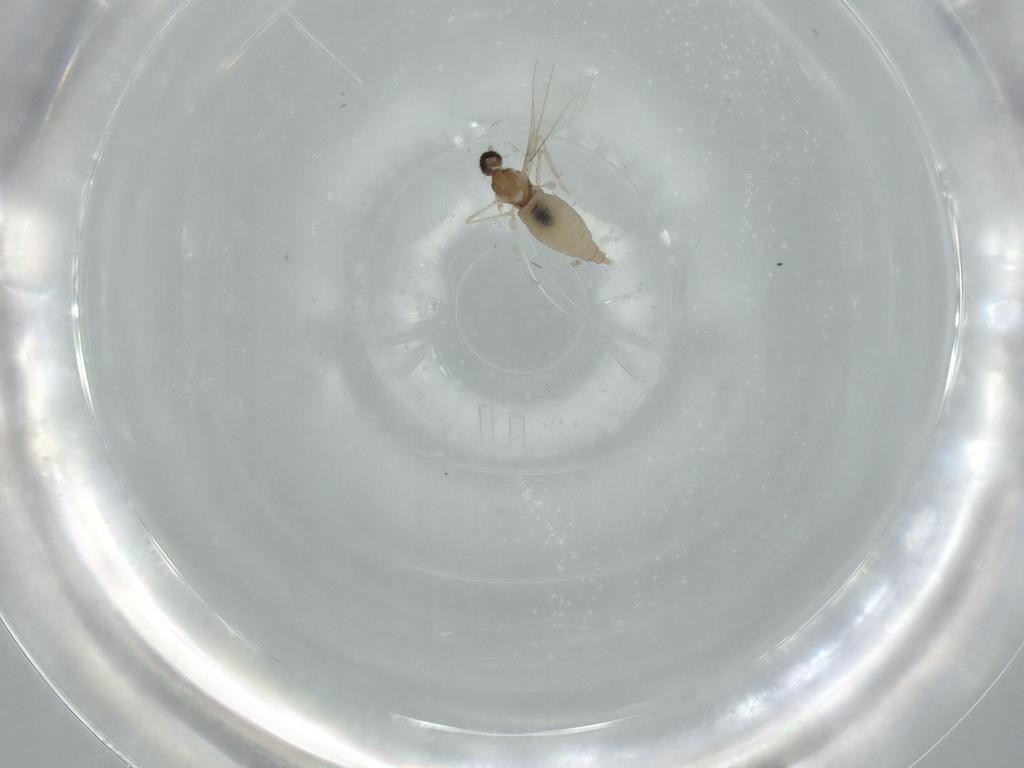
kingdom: Animalia
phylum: Arthropoda
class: Insecta
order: Diptera
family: Cecidomyiidae
